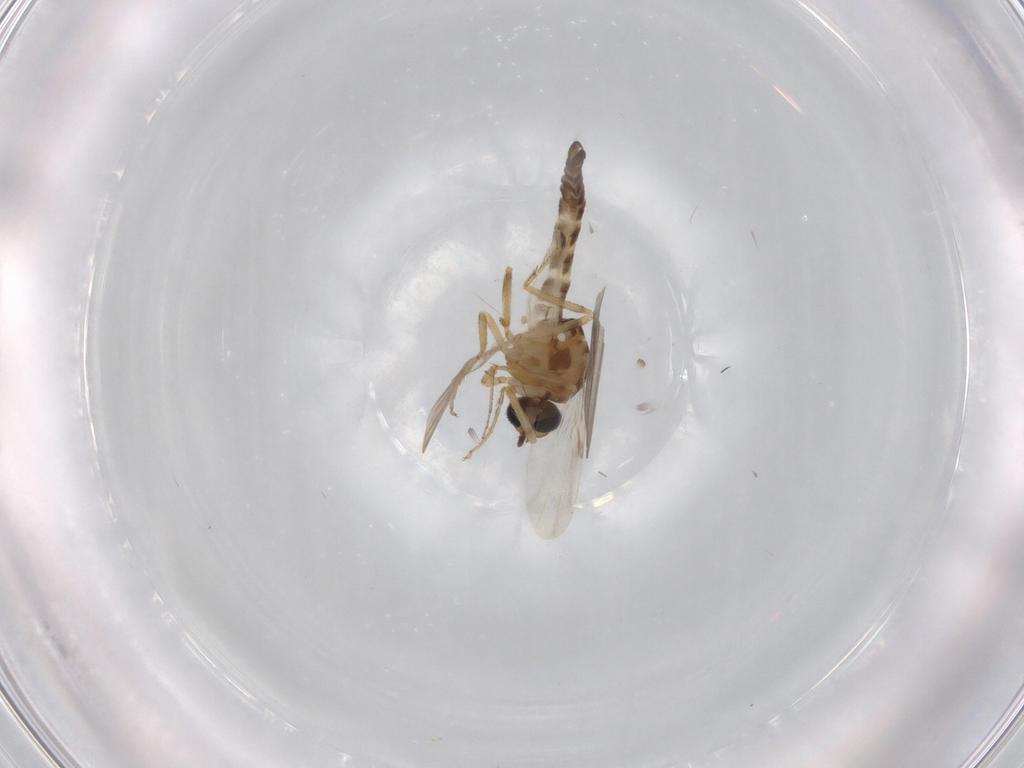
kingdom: Animalia
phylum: Arthropoda
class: Insecta
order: Diptera
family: Ceratopogonidae
